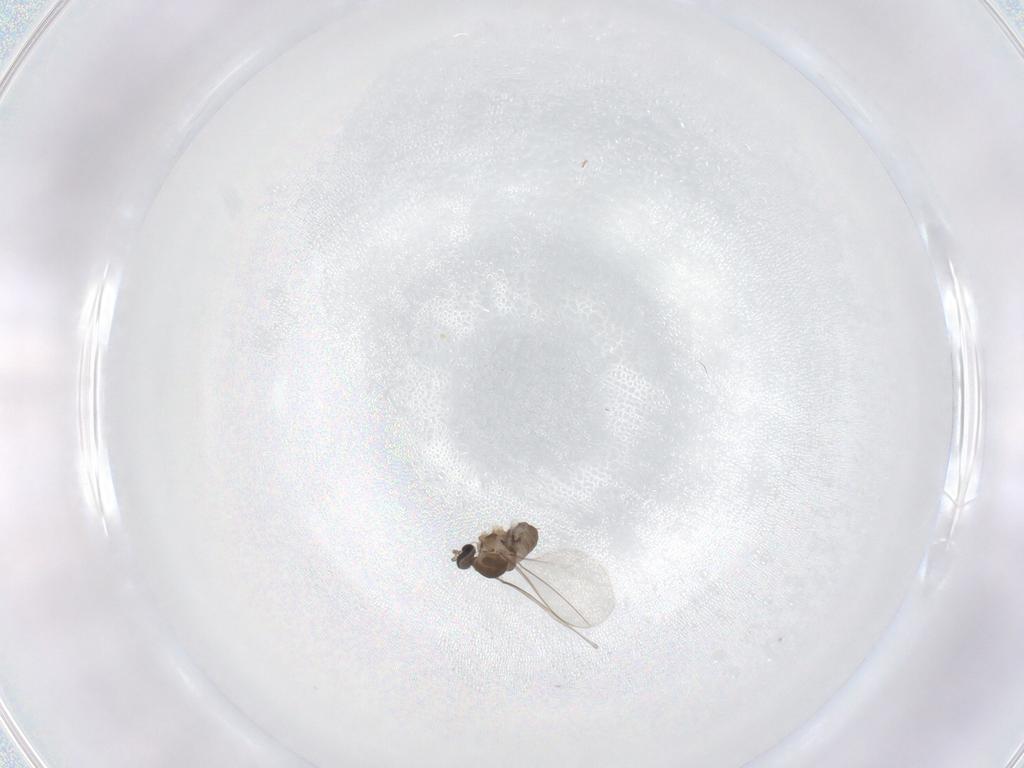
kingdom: Animalia
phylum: Arthropoda
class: Insecta
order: Diptera
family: Cecidomyiidae
